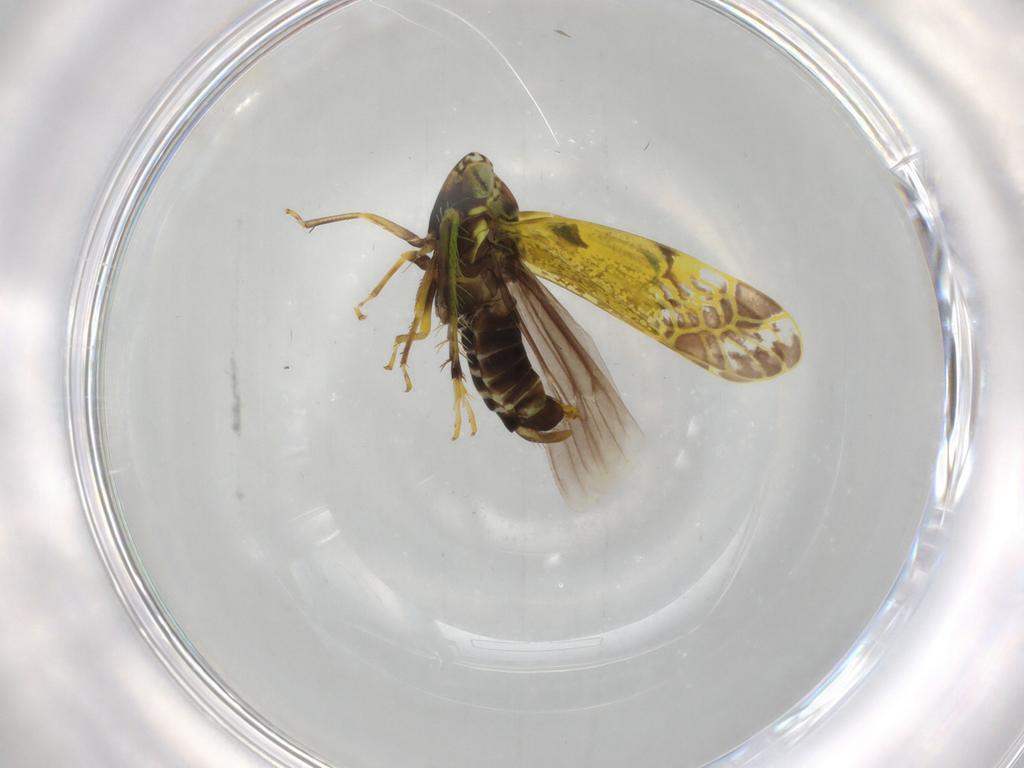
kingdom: Animalia
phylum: Arthropoda
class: Insecta
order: Hemiptera
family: Cicadellidae
